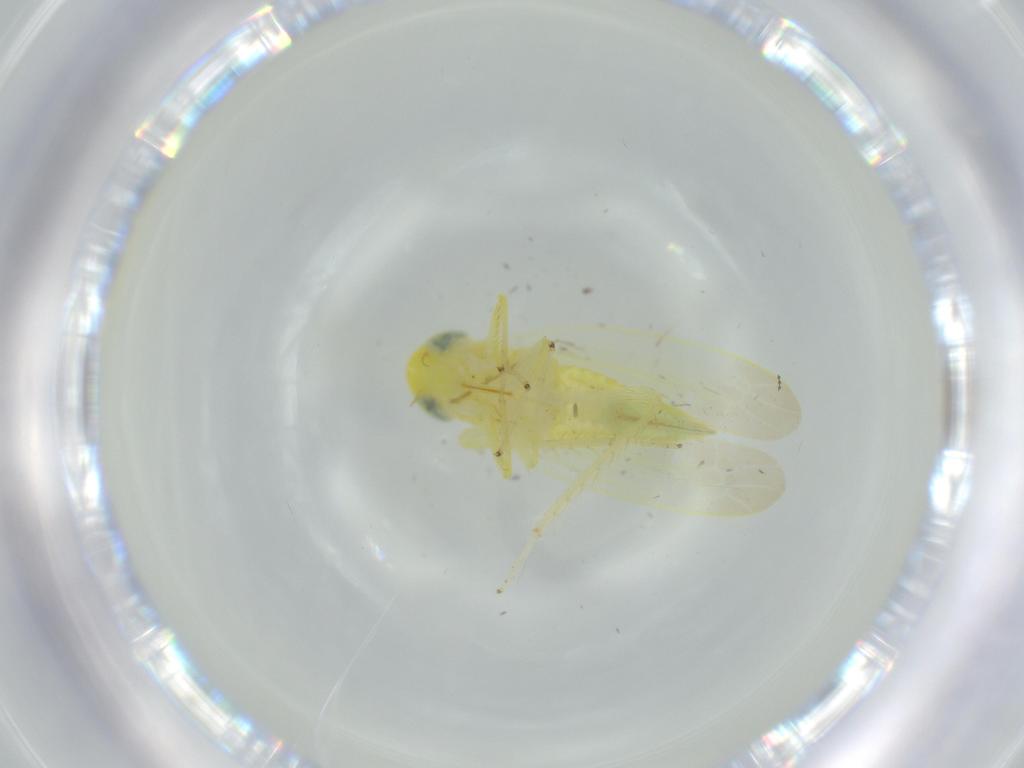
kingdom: Animalia
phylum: Arthropoda
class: Insecta
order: Hemiptera
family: Cicadellidae
